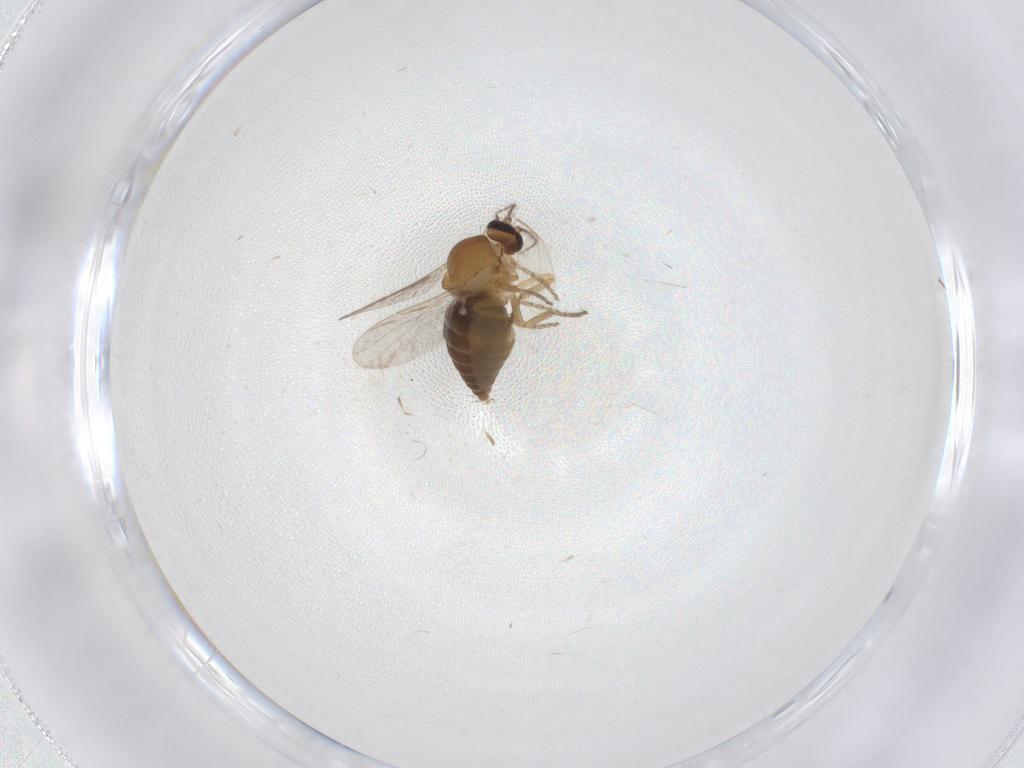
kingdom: Animalia
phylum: Arthropoda
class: Insecta
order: Diptera
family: Ceratopogonidae
